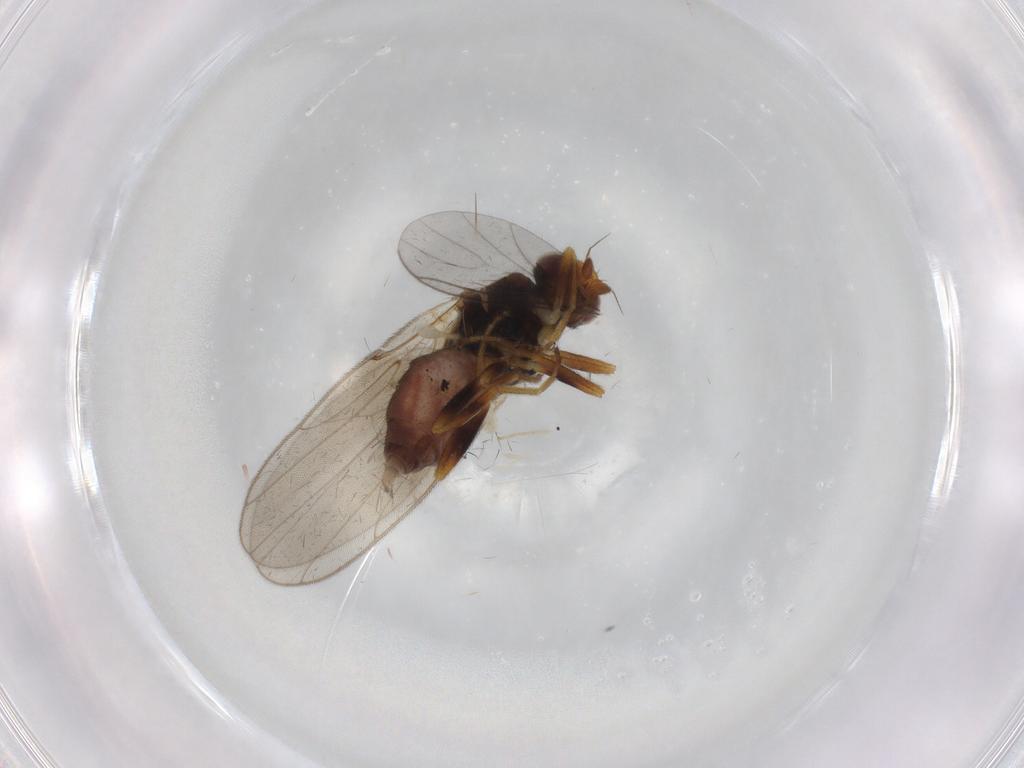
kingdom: Animalia
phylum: Arthropoda
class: Insecta
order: Diptera
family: Chloropidae
